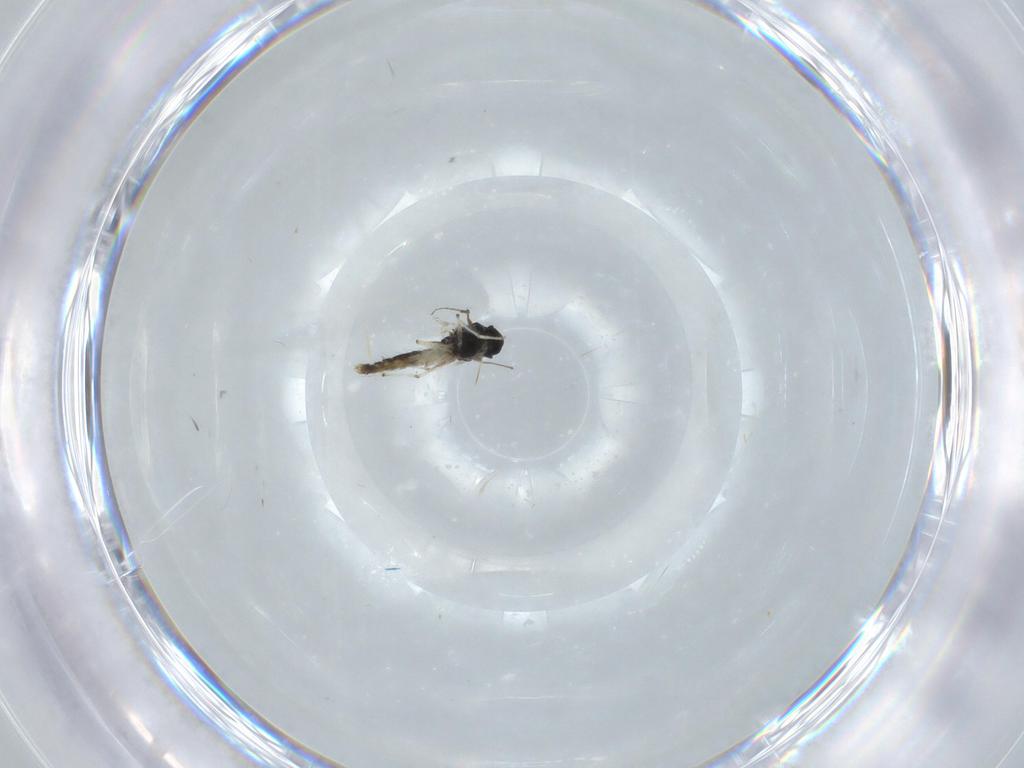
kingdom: Animalia
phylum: Arthropoda
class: Insecta
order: Diptera
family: Chironomidae
